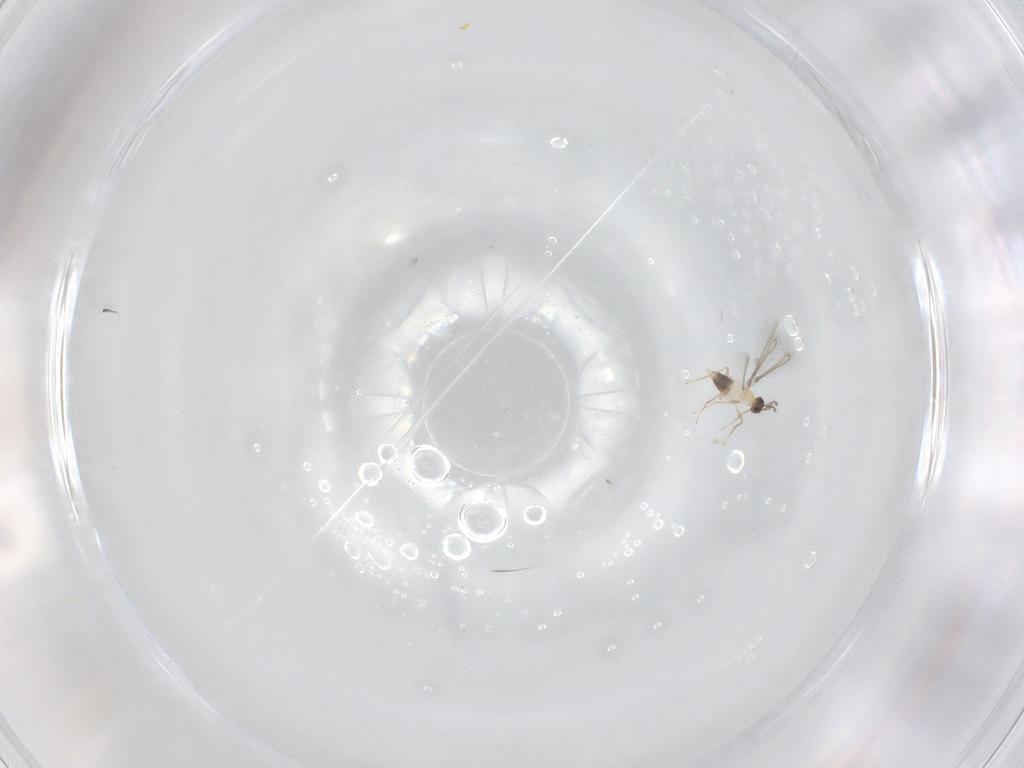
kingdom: Animalia
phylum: Arthropoda
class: Insecta
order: Hymenoptera
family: Mymaridae
